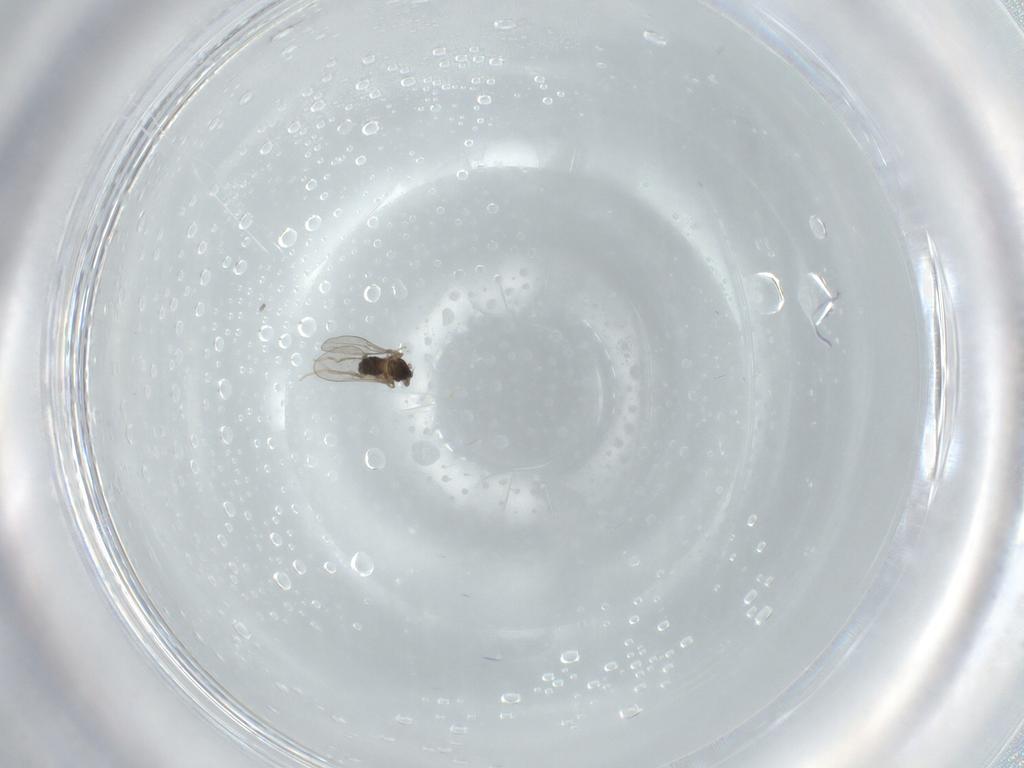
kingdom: Animalia
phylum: Arthropoda
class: Insecta
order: Diptera
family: Cecidomyiidae
